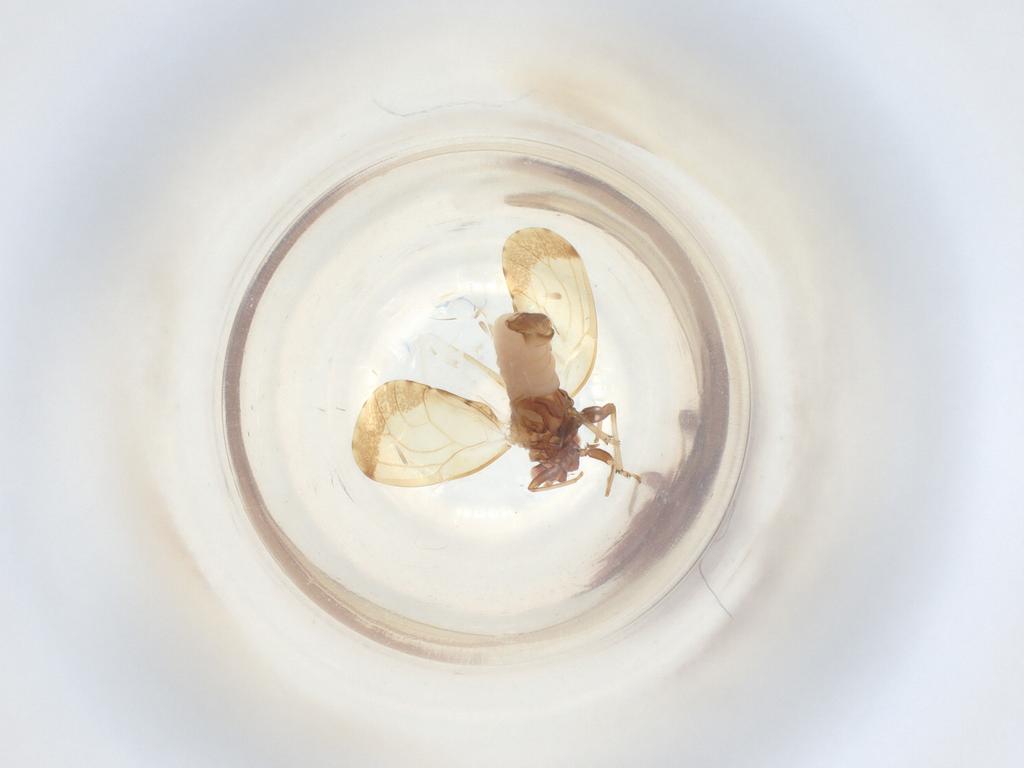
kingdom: Animalia
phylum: Arthropoda
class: Insecta
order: Hemiptera
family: Psyllidae
